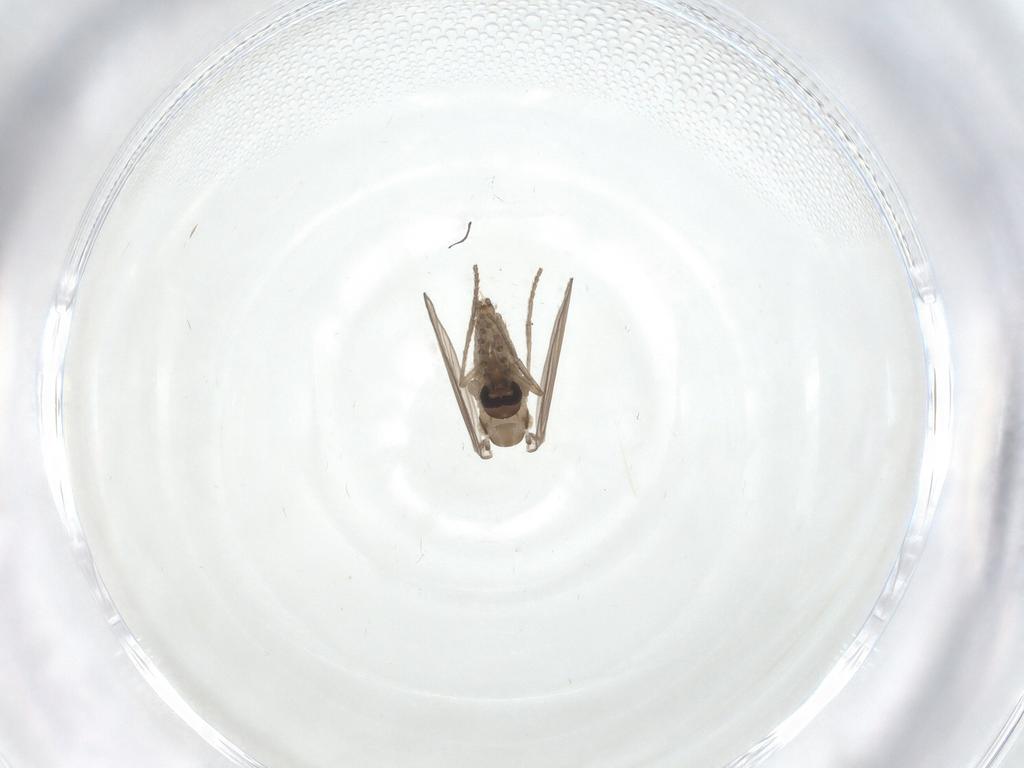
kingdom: Animalia
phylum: Arthropoda
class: Insecta
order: Diptera
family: Psychodidae
